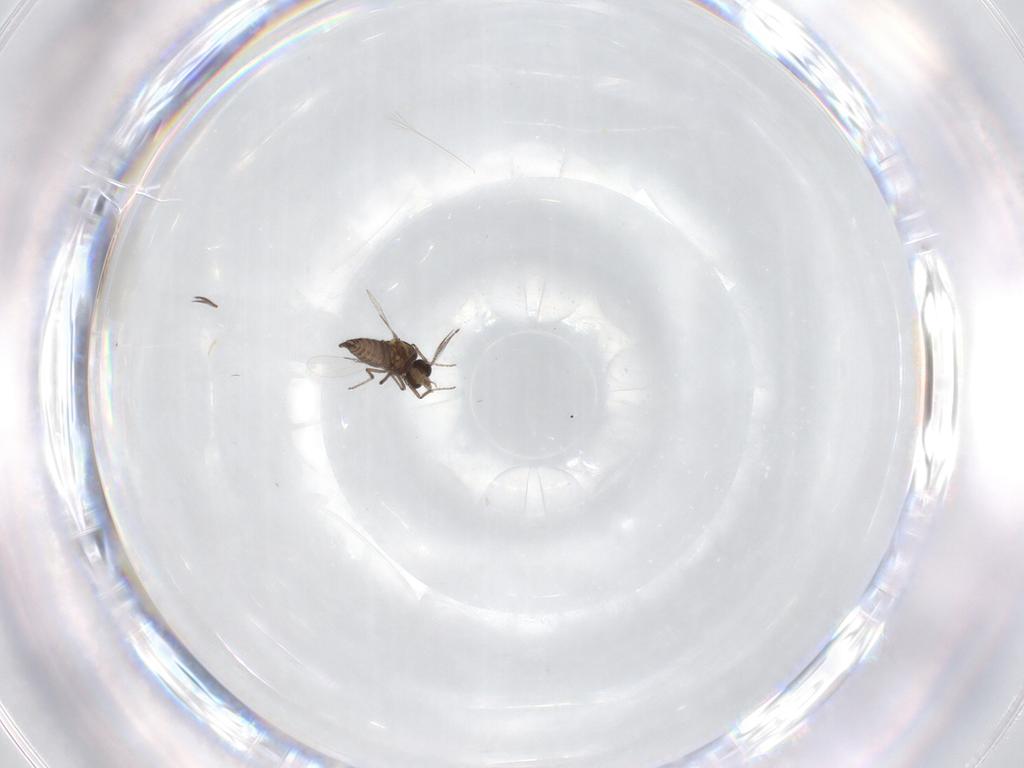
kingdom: Animalia
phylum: Arthropoda
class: Insecta
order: Diptera
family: Ceratopogonidae
